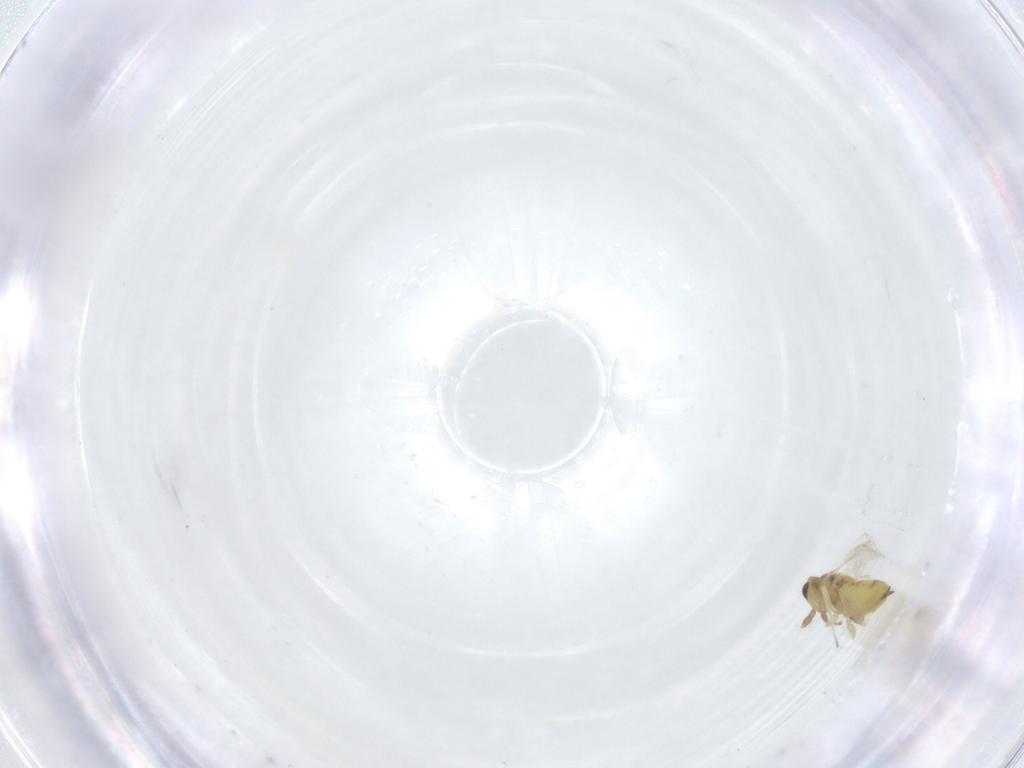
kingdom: Animalia
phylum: Arthropoda
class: Insecta
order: Hymenoptera
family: Eulophidae
